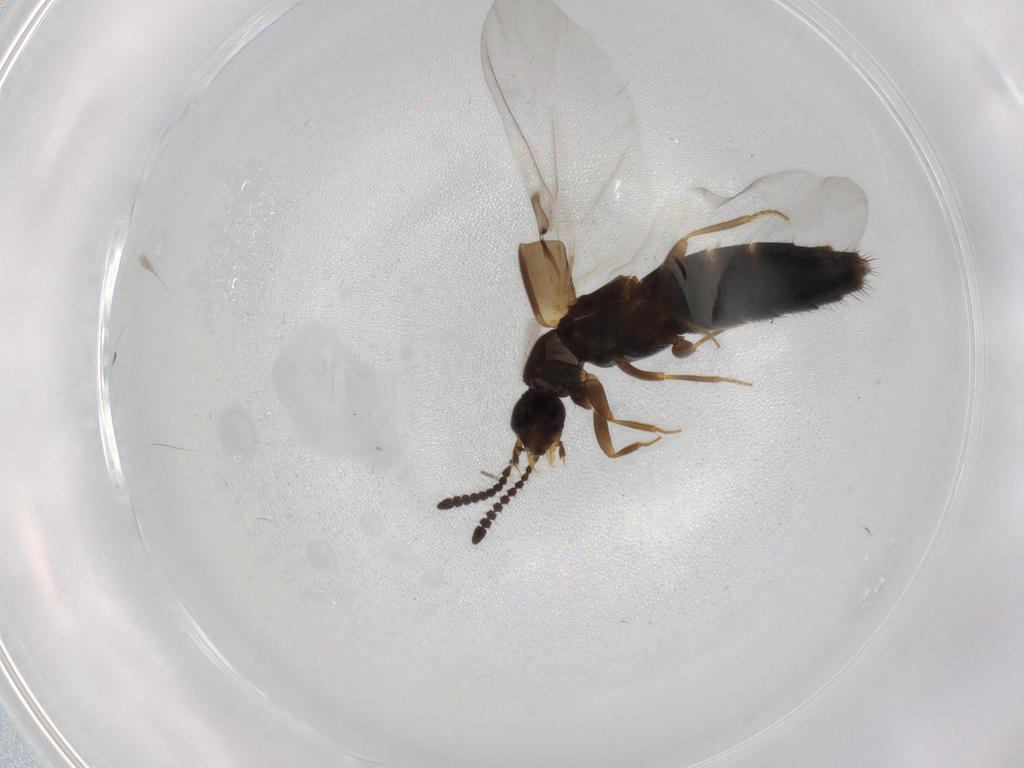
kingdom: Animalia
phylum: Arthropoda
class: Insecta
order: Coleoptera
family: Staphylinidae
